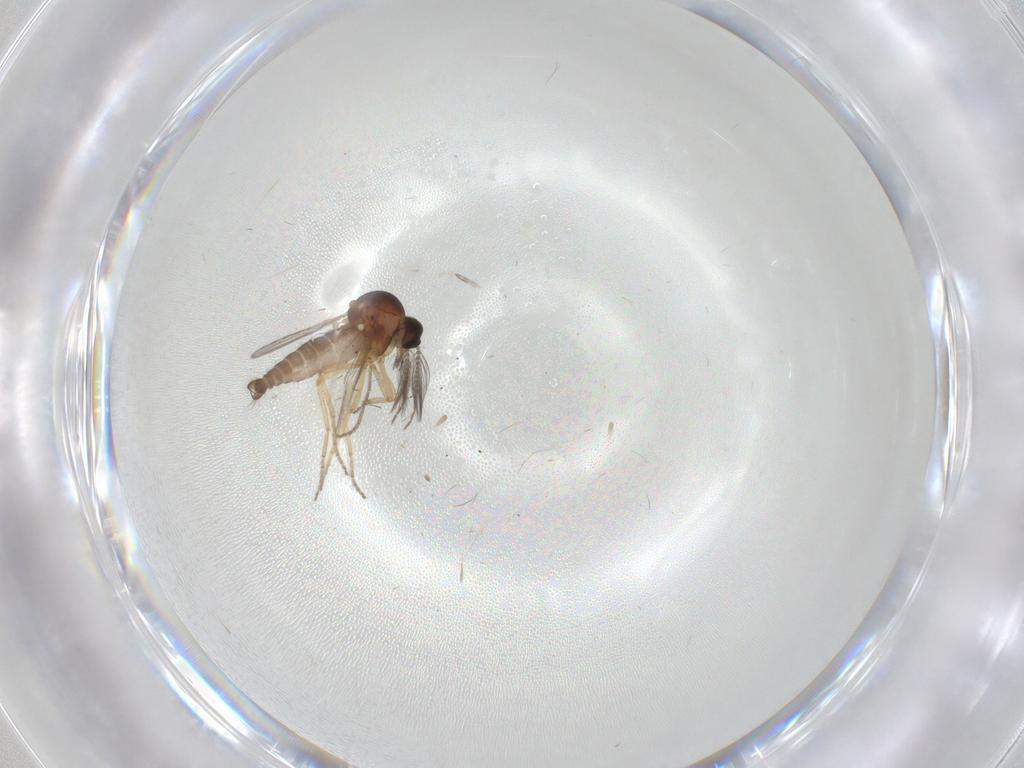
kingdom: Animalia
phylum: Arthropoda
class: Insecta
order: Diptera
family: Ceratopogonidae
